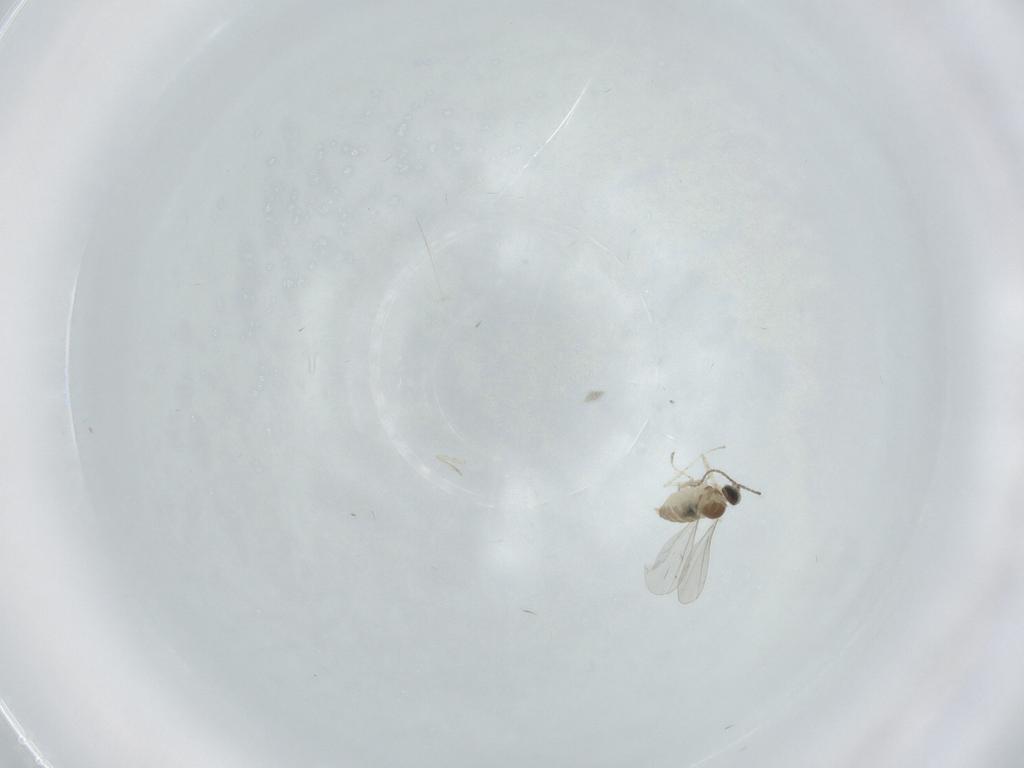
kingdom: Animalia
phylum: Arthropoda
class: Insecta
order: Diptera
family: Cecidomyiidae
